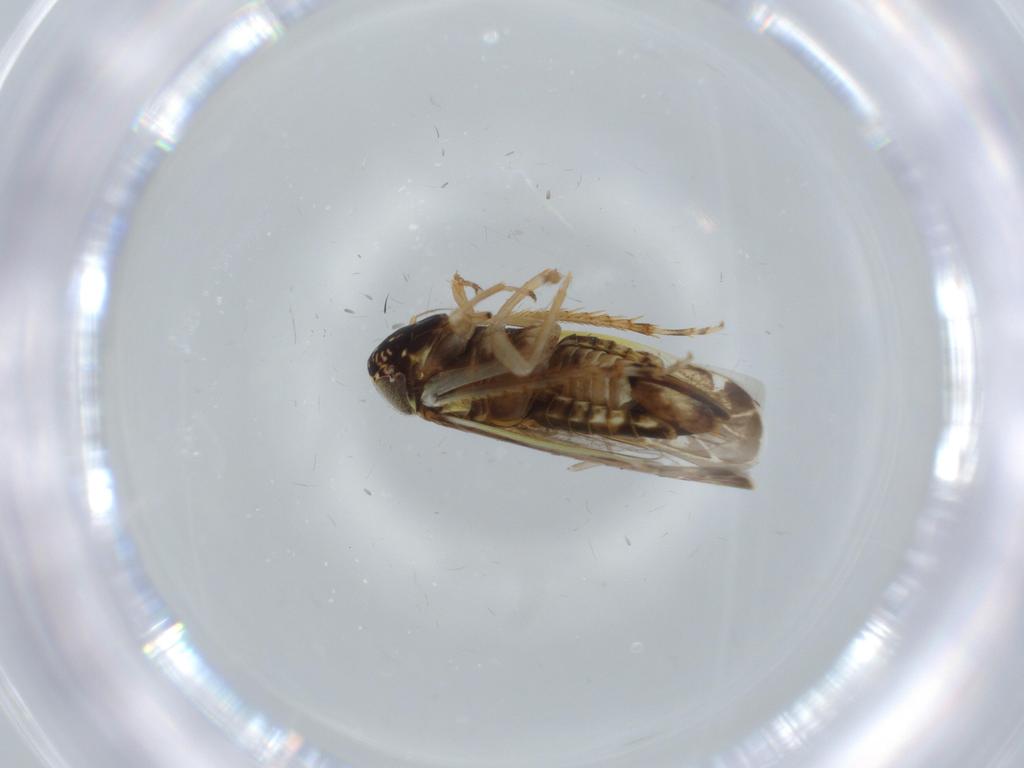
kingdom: Animalia
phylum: Arthropoda
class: Insecta
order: Hemiptera
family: Cicadellidae
